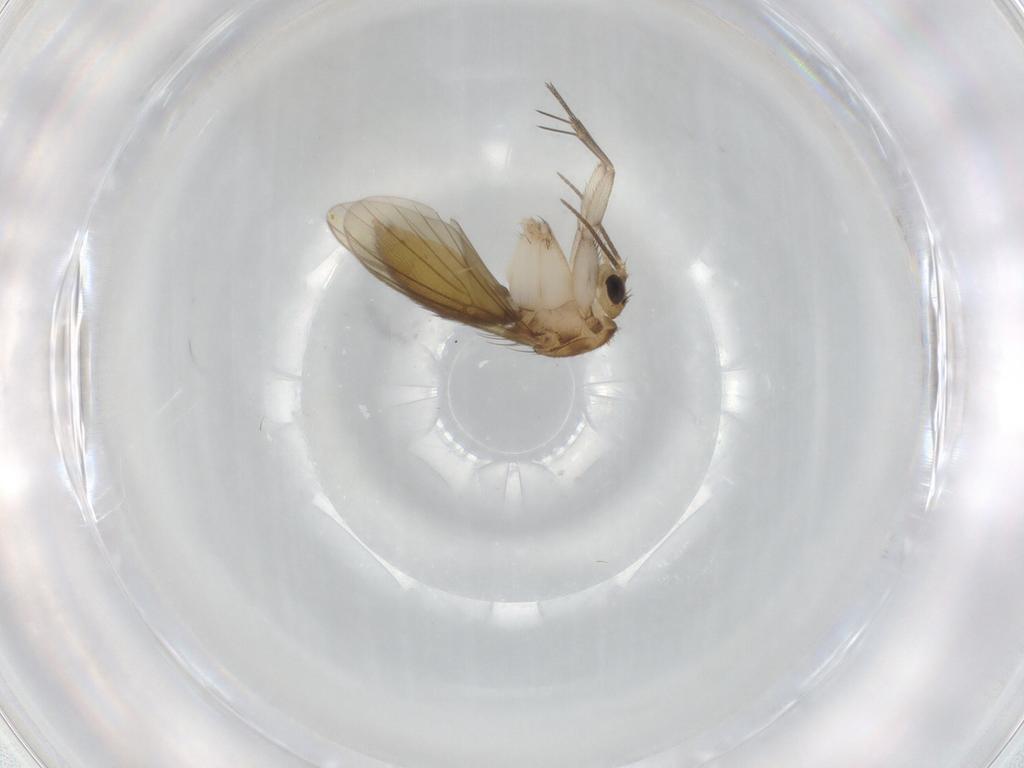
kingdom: Animalia
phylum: Arthropoda
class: Insecta
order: Diptera
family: Mycetophilidae
